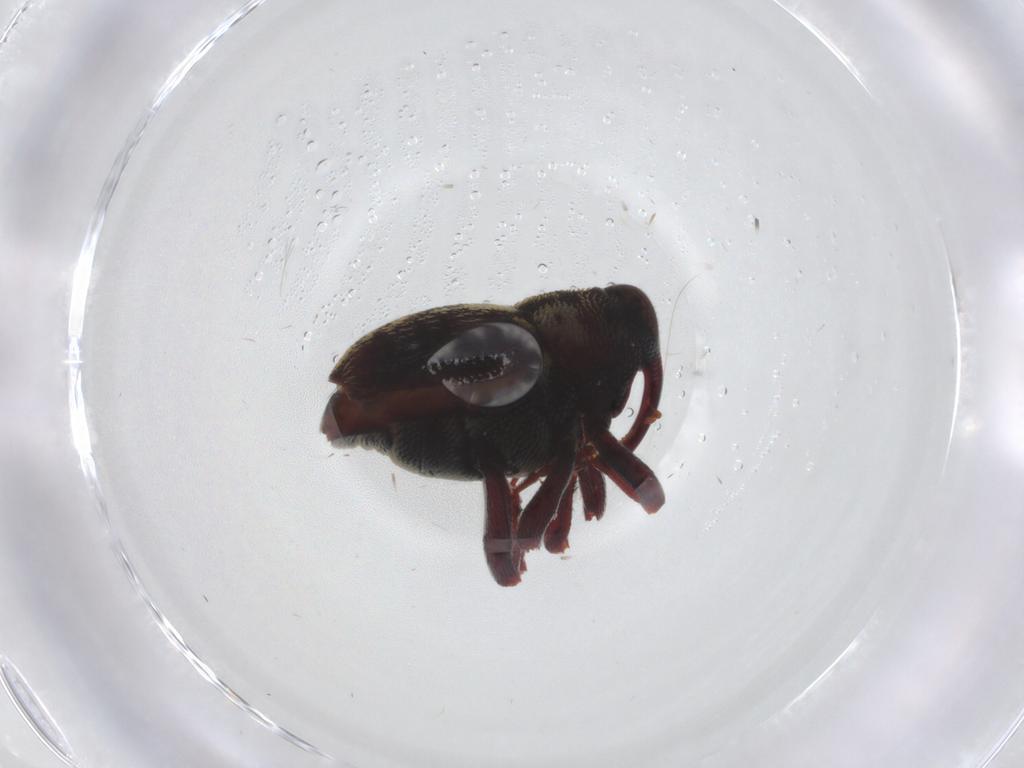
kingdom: Animalia
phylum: Arthropoda
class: Insecta
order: Coleoptera
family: Curculionidae
